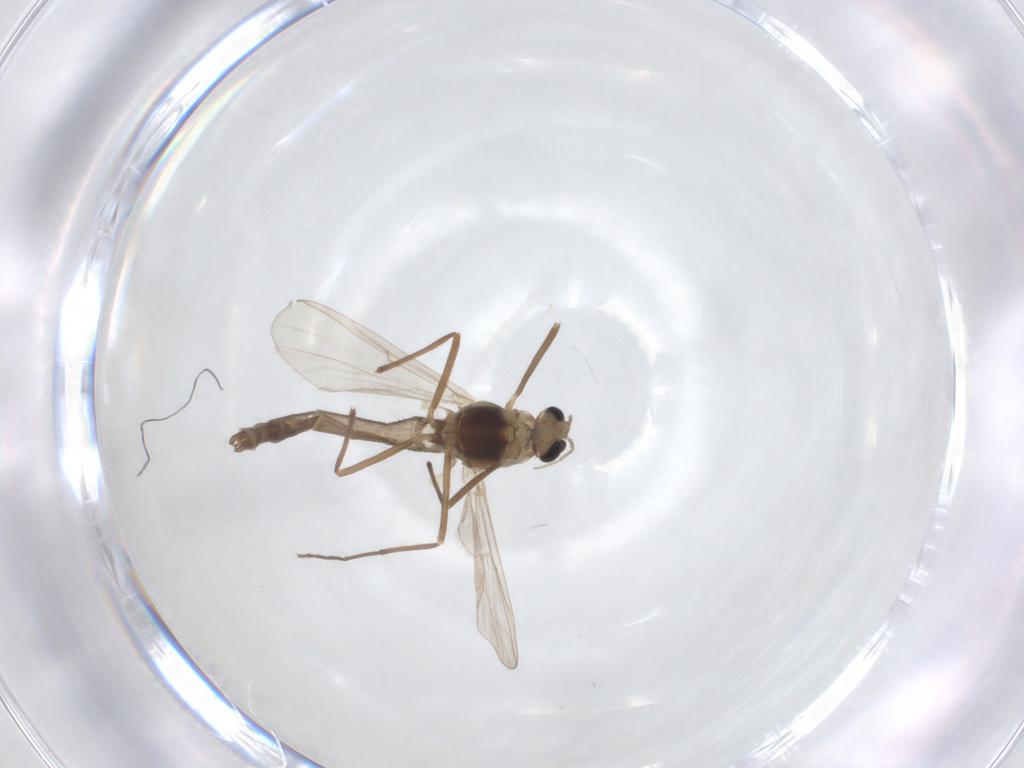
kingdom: Animalia
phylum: Arthropoda
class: Insecta
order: Diptera
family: Chironomidae
